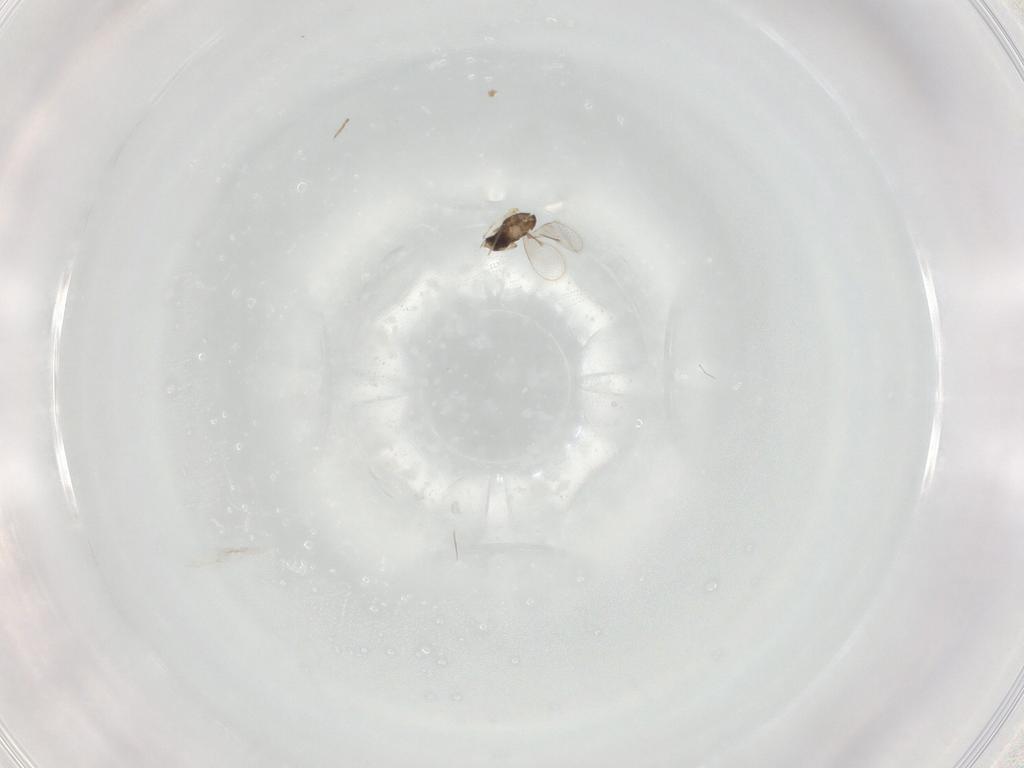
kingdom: Animalia
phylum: Arthropoda
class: Insecta
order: Hymenoptera
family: Aphelinidae
